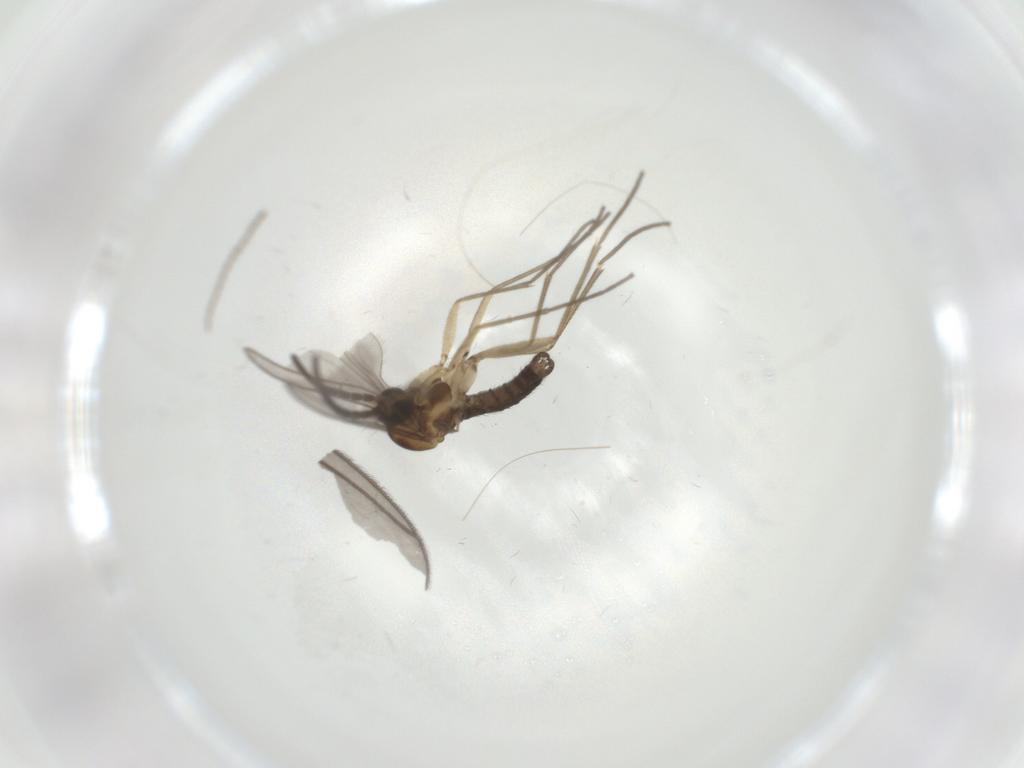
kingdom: Animalia
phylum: Arthropoda
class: Insecta
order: Diptera
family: Sciaridae
